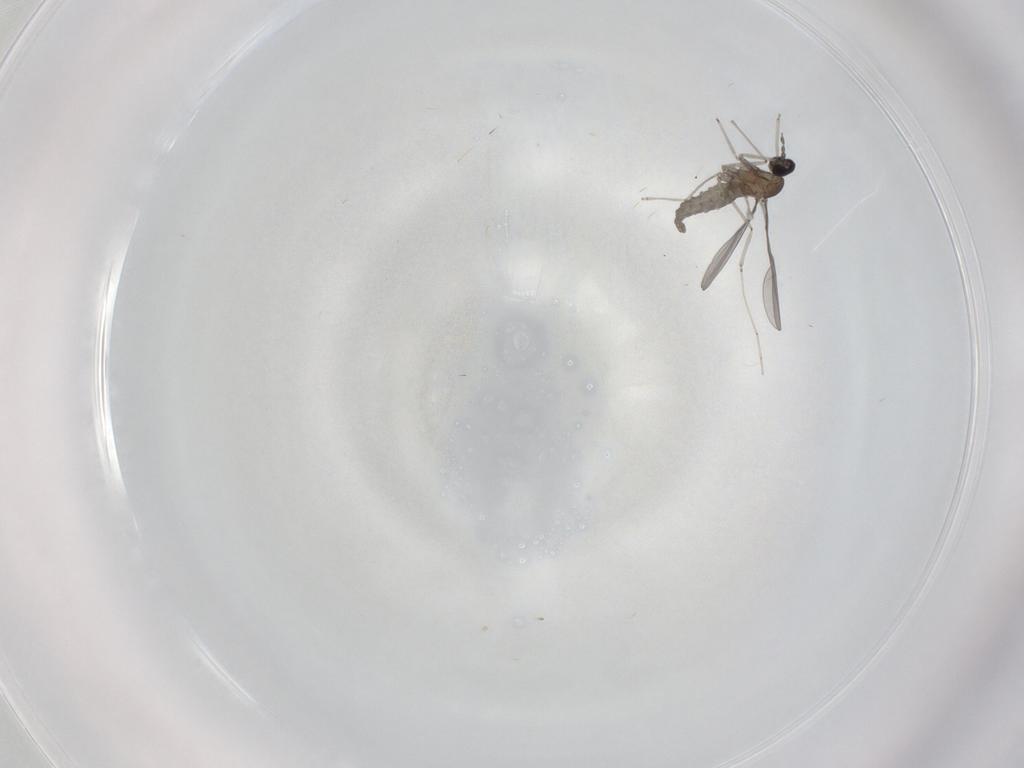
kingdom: Animalia
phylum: Arthropoda
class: Insecta
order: Diptera
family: Cecidomyiidae
